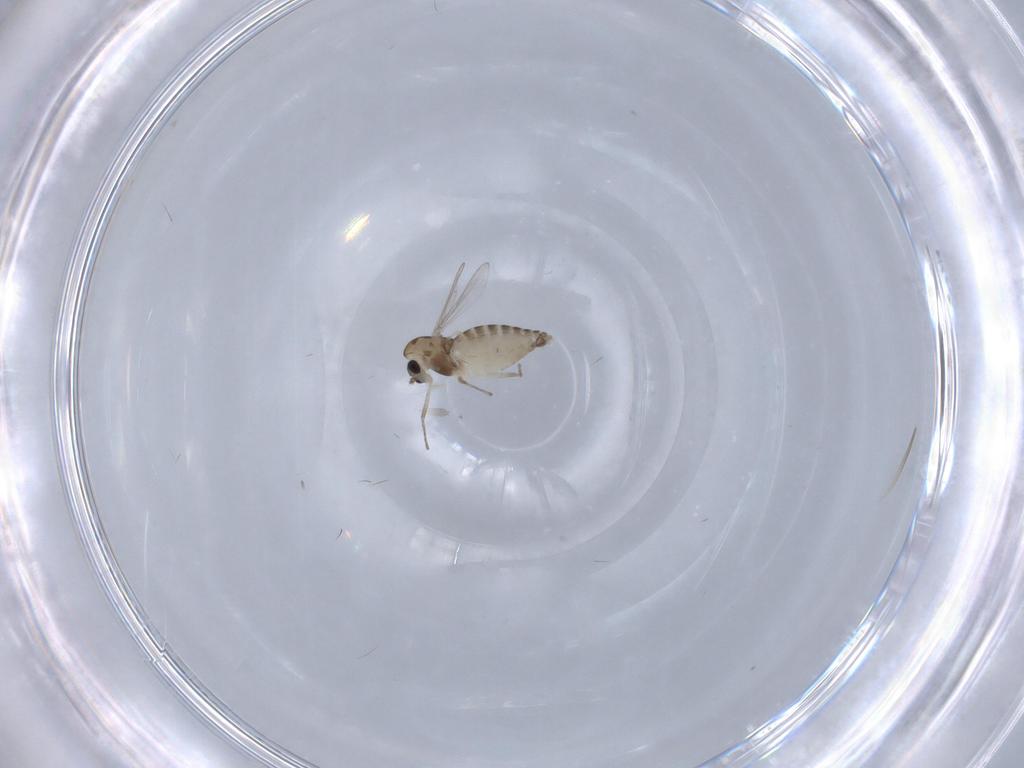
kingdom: Animalia
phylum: Arthropoda
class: Insecta
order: Diptera
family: Chironomidae
